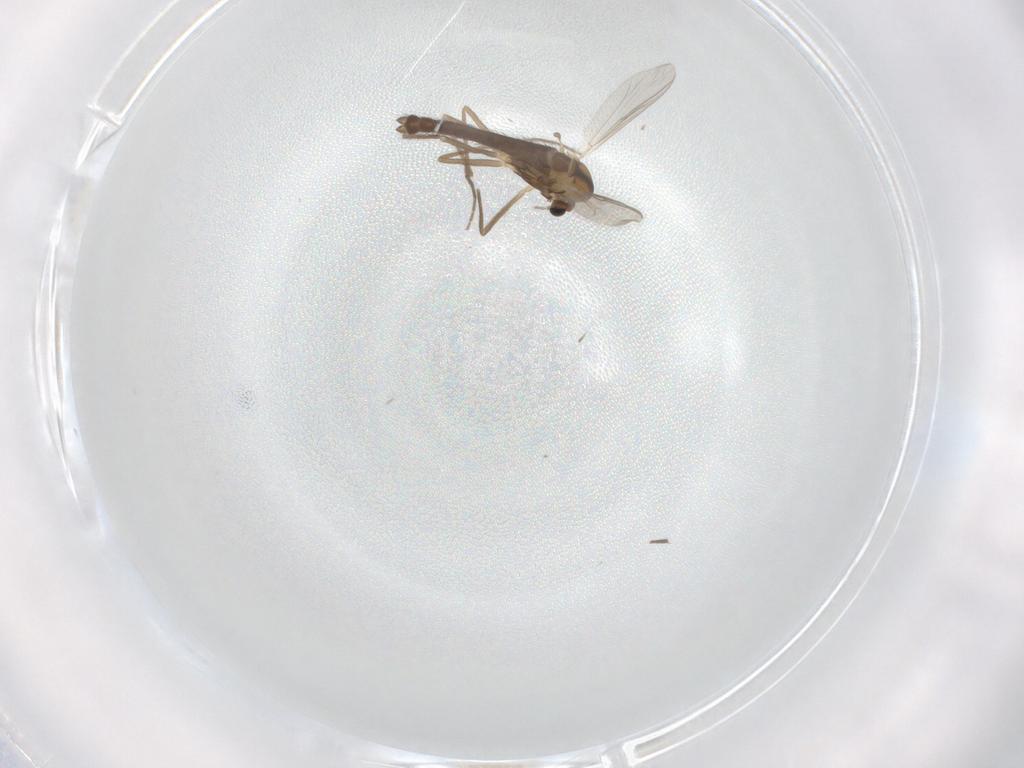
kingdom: Animalia
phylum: Arthropoda
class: Insecta
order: Diptera
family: Chironomidae
